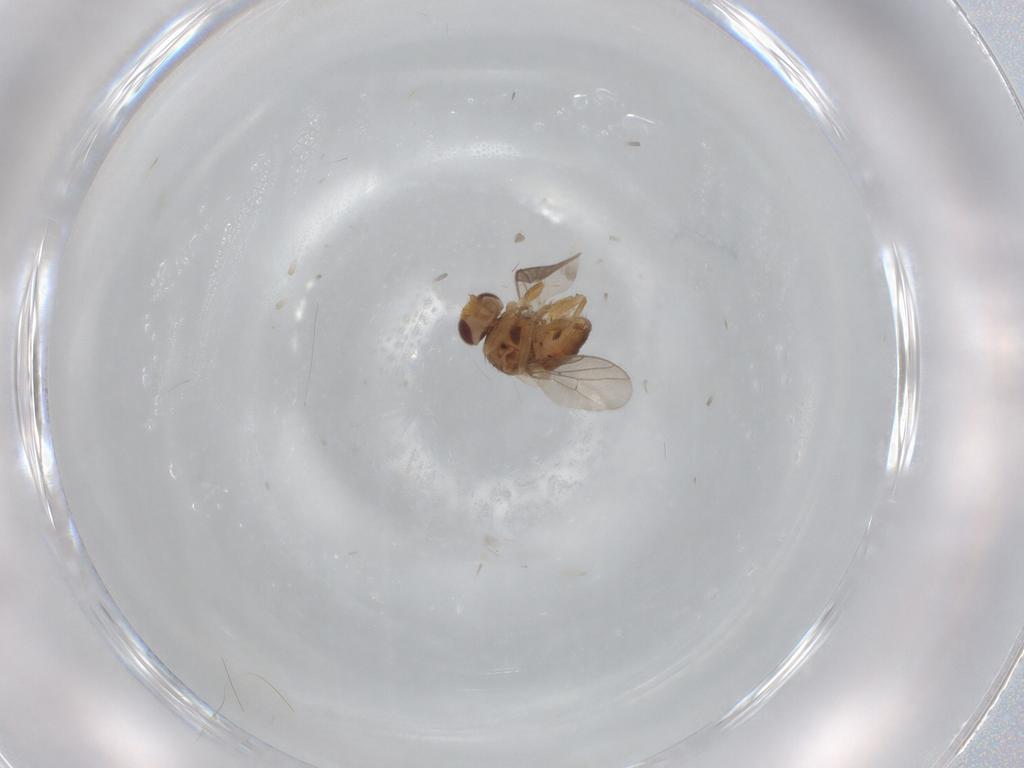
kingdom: Animalia
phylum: Arthropoda
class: Insecta
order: Diptera
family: Chloropidae
